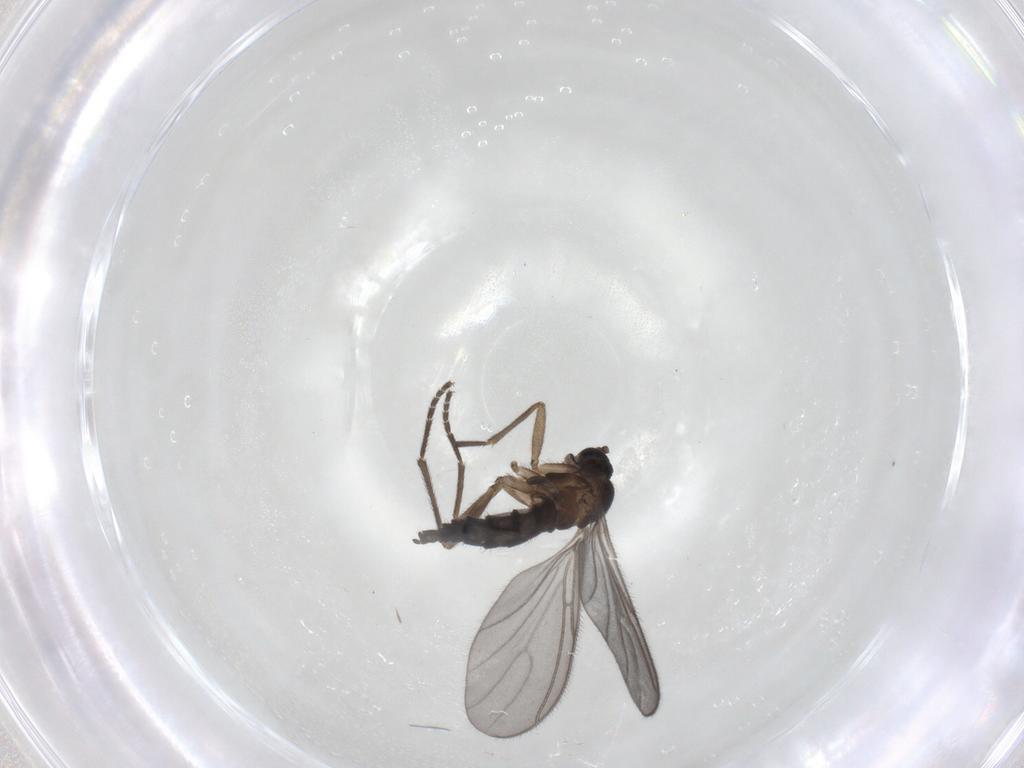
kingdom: Animalia
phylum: Arthropoda
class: Insecta
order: Diptera
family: Sciaridae
